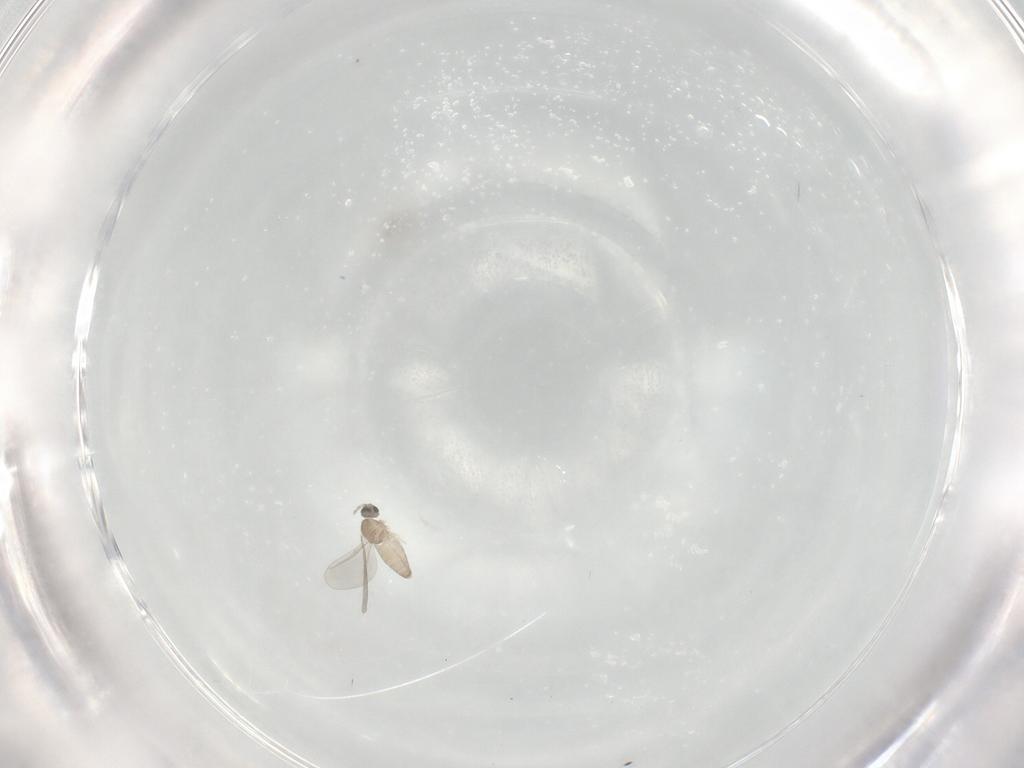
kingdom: Animalia
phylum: Arthropoda
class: Insecta
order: Diptera
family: Cecidomyiidae
